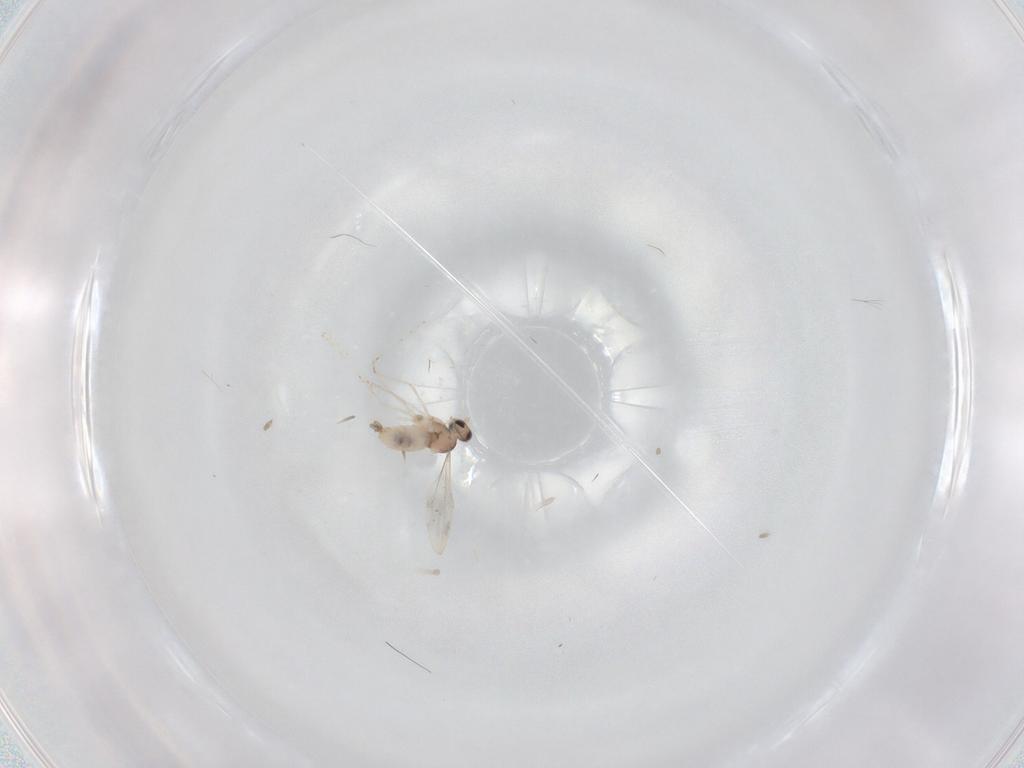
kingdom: Animalia
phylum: Arthropoda
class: Insecta
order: Diptera
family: Cecidomyiidae
